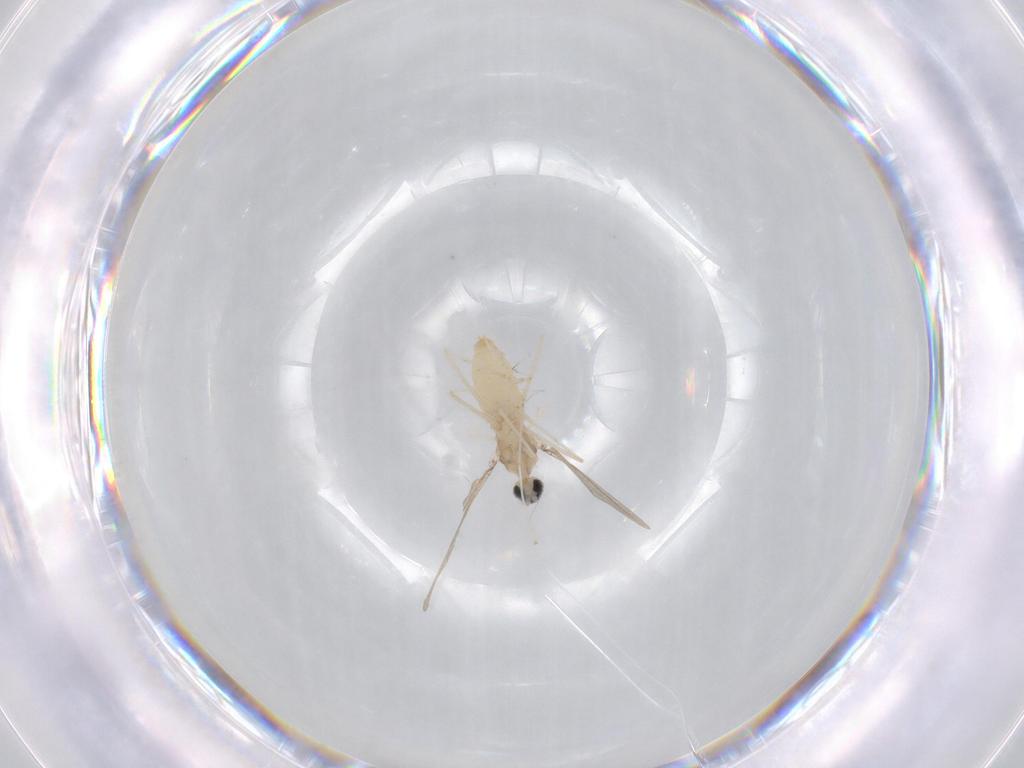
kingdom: Animalia
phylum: Arthropoda
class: Insecta
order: Diptera
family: Cecidomyiidae
